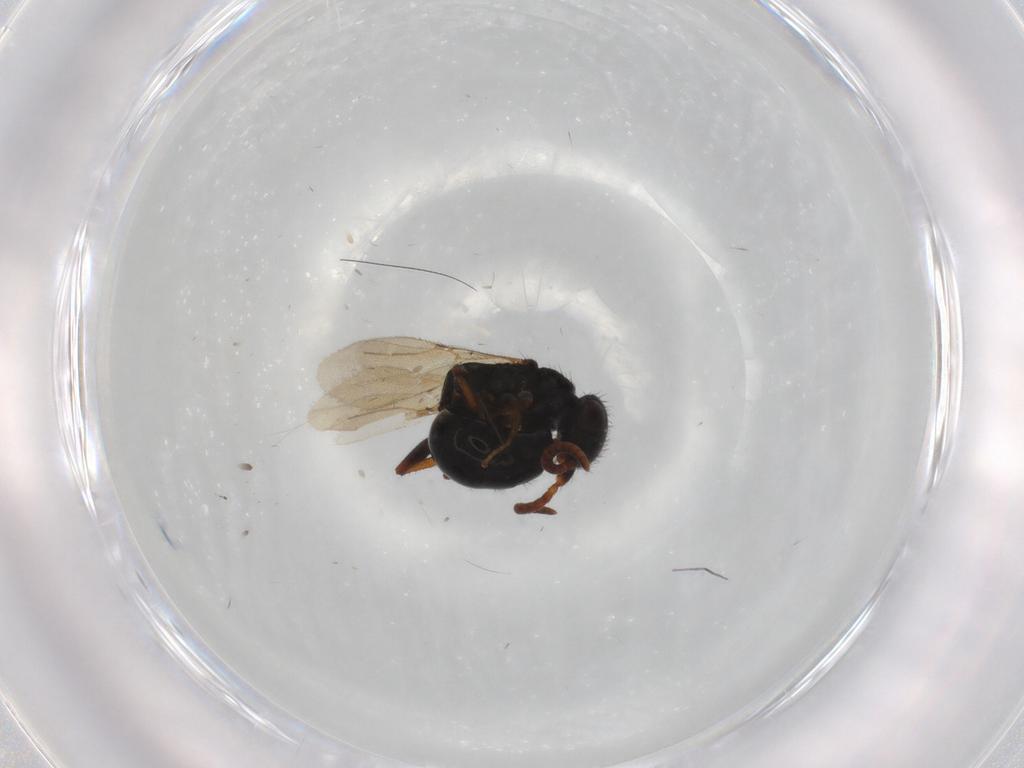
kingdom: Animalia
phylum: Arthropoda
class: Insecta
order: Hymenoptera
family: Bethylidae
